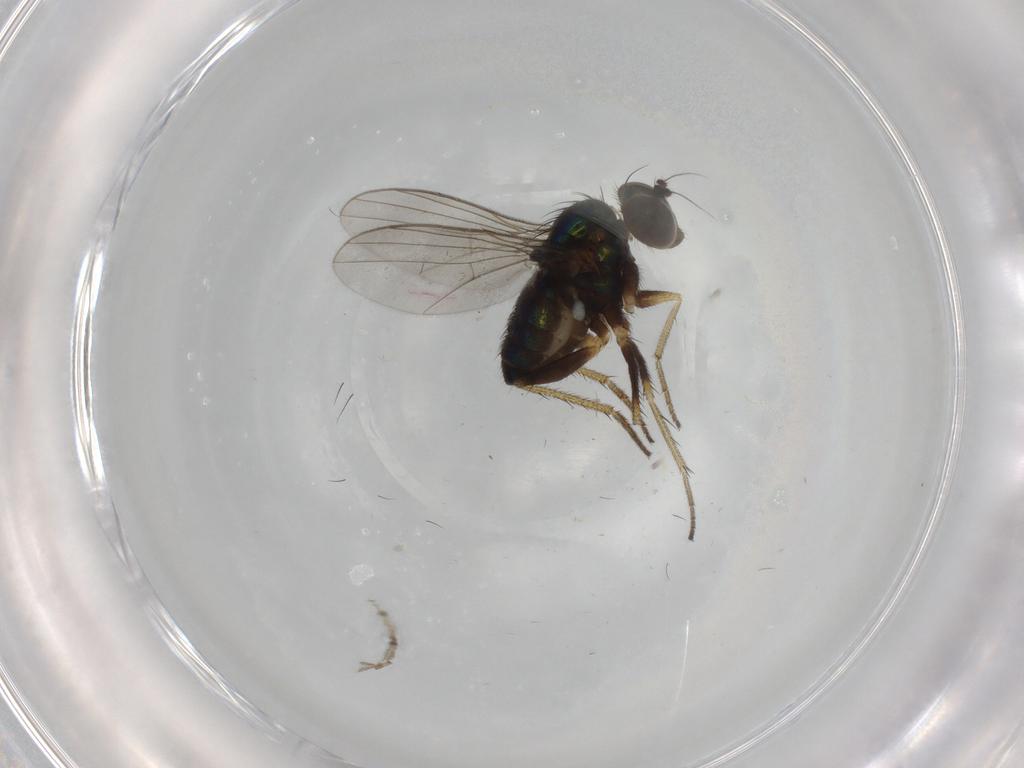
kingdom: Animalia
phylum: Arthropoda
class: Insecta
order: Diptera
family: Dolichopodidae
